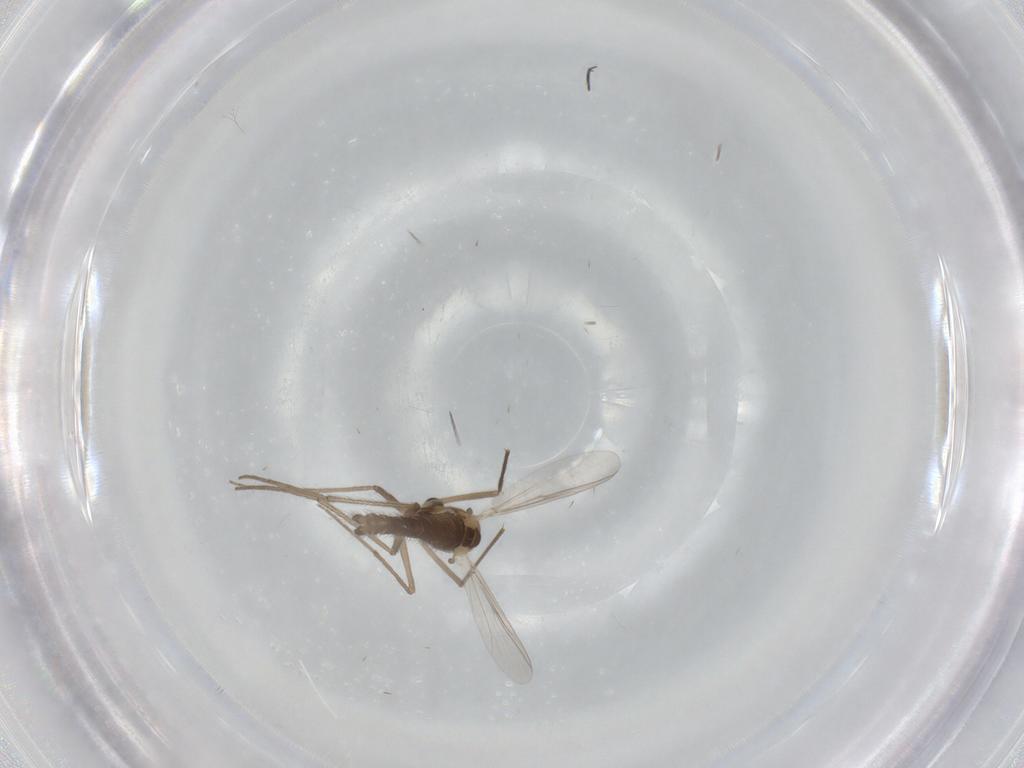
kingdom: Animalia
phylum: Arthropoda
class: Insecta
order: Diptera
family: Chironomidae
